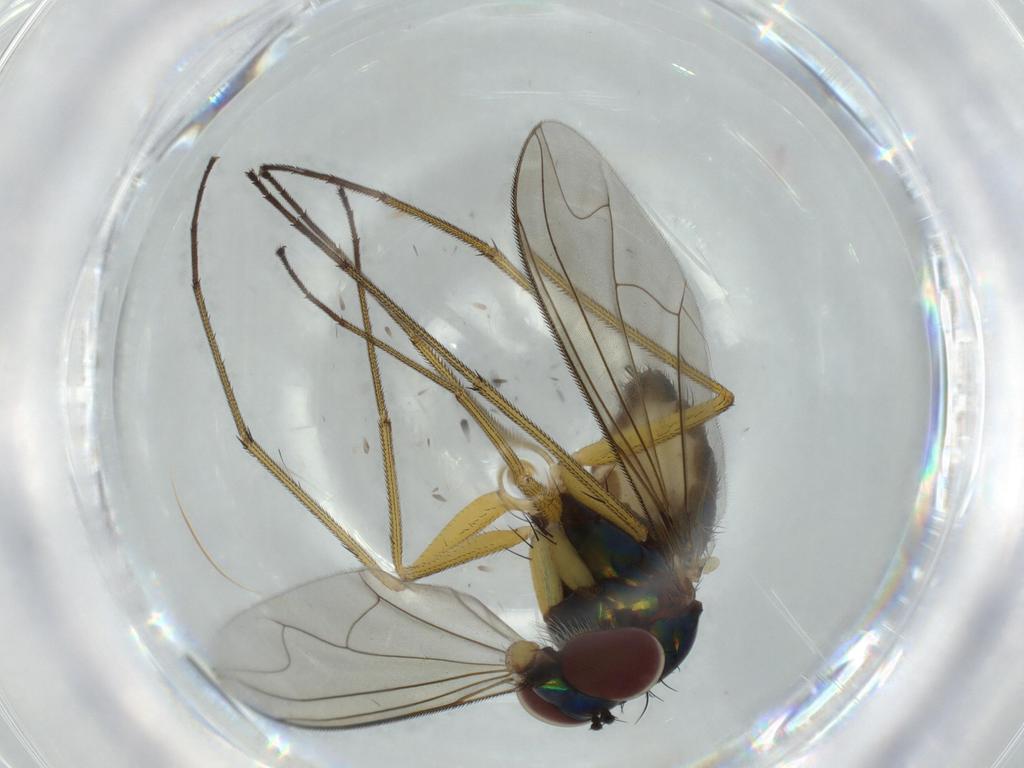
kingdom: Animalia
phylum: Arthropoda
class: Insecta
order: Diptera
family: Dolichopodidae
